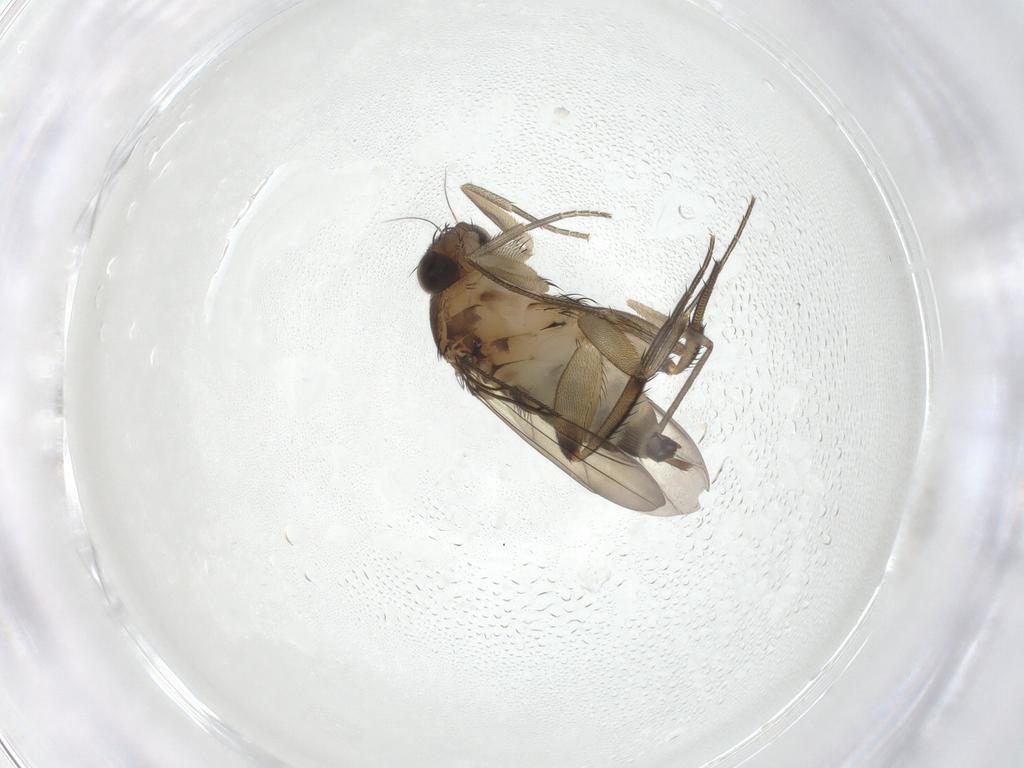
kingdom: Animalia
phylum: Arthropoda
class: Insecta
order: Diptera
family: Phoridae
